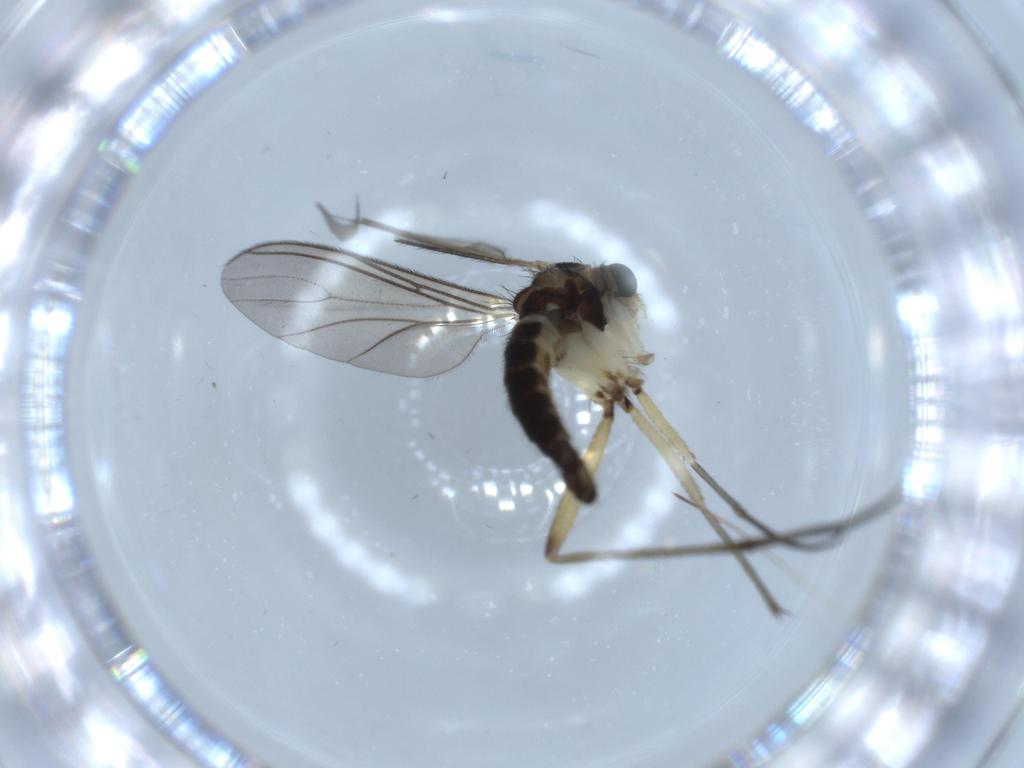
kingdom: Animalia
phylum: Arthropoda
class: Insecta
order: Diptera
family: Sciaridae
